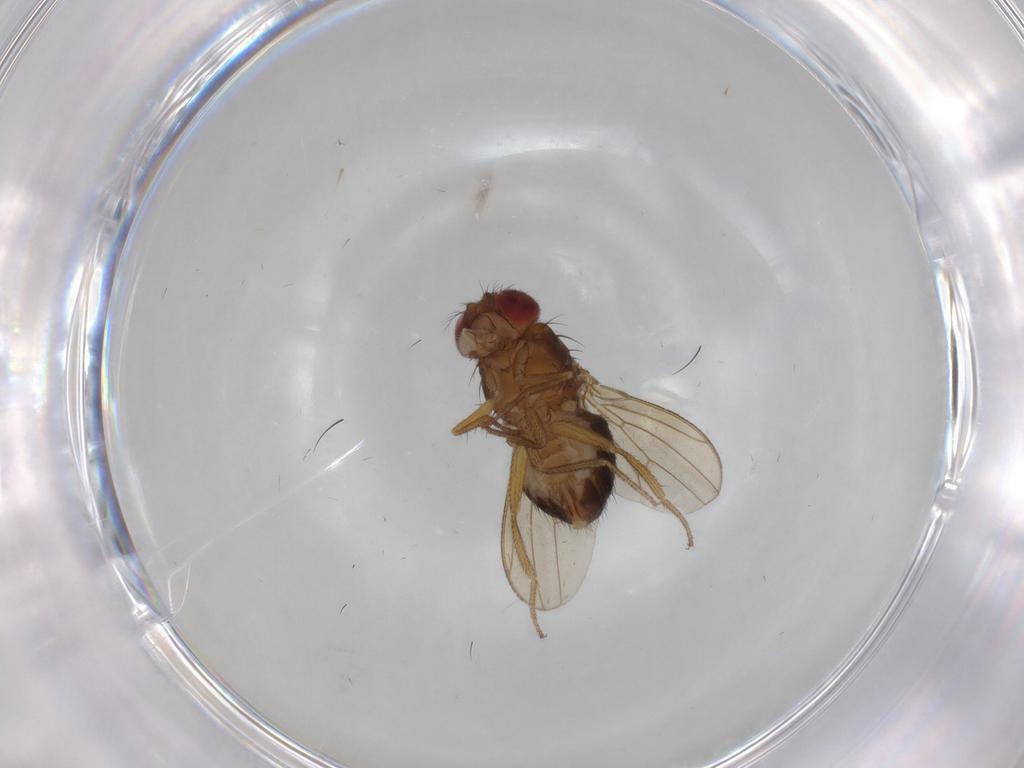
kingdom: Animalia
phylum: Arthropoda
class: Insecta
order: Diptera
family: Drosophilidae
